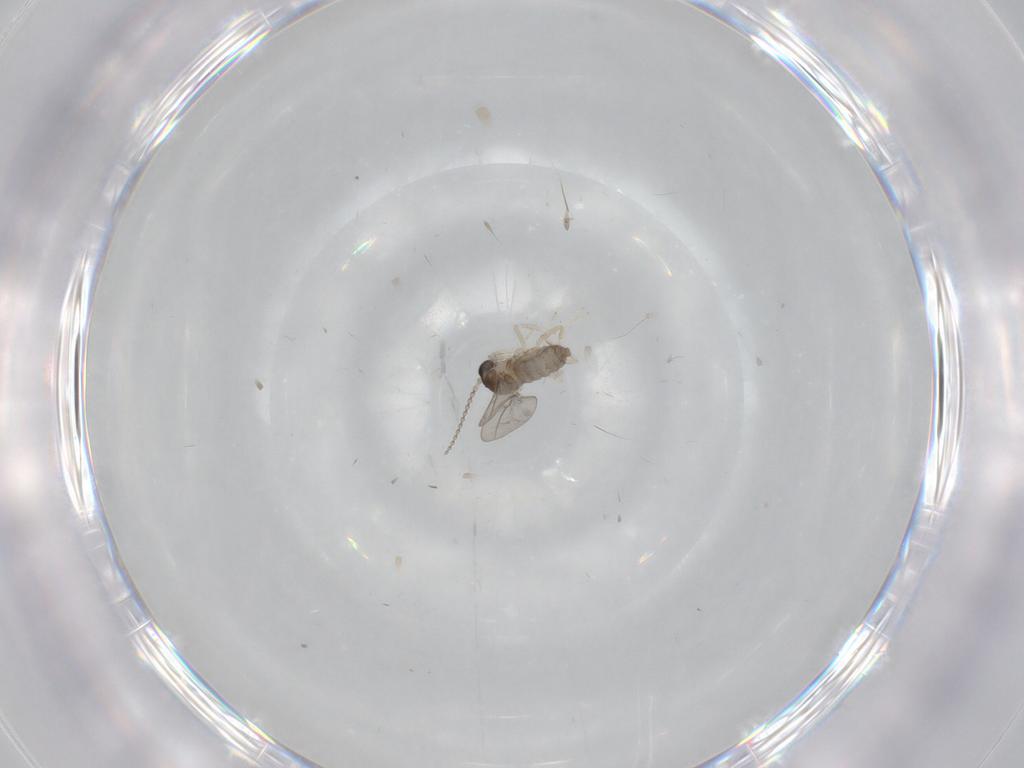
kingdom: Animalia
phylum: Arthropoda
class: Insecta
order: Diptera
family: Cecidomyiidae
